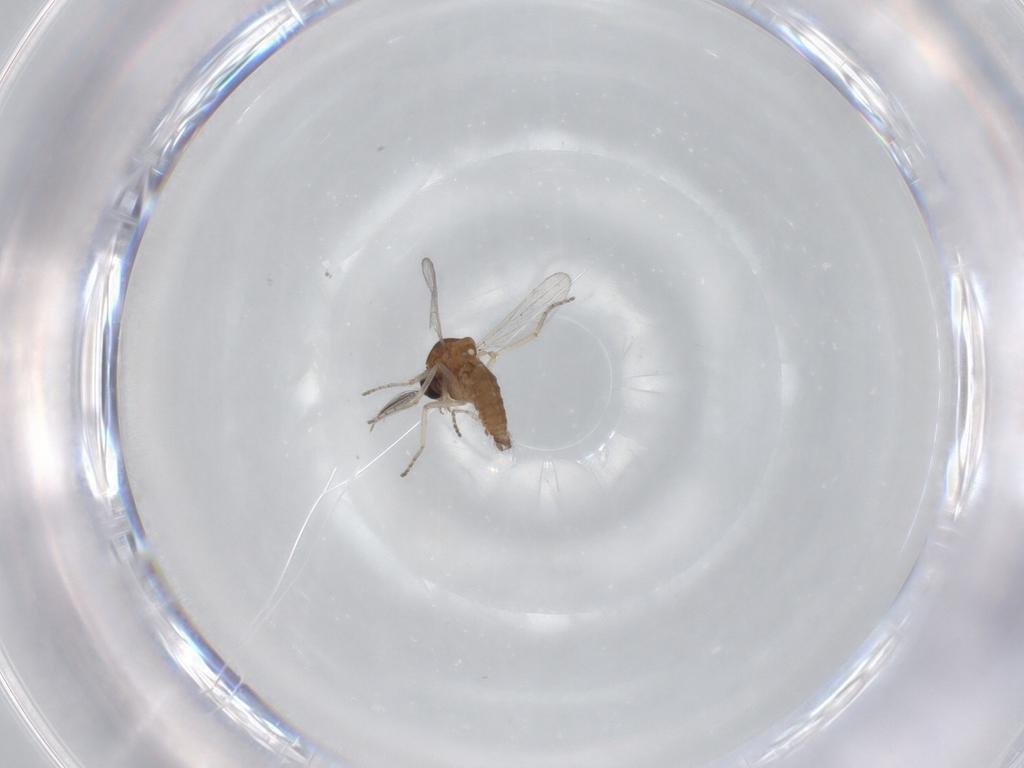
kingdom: Animalia
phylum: Arthropoda
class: Insecta
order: Diptera
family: Ceratopogonidae
